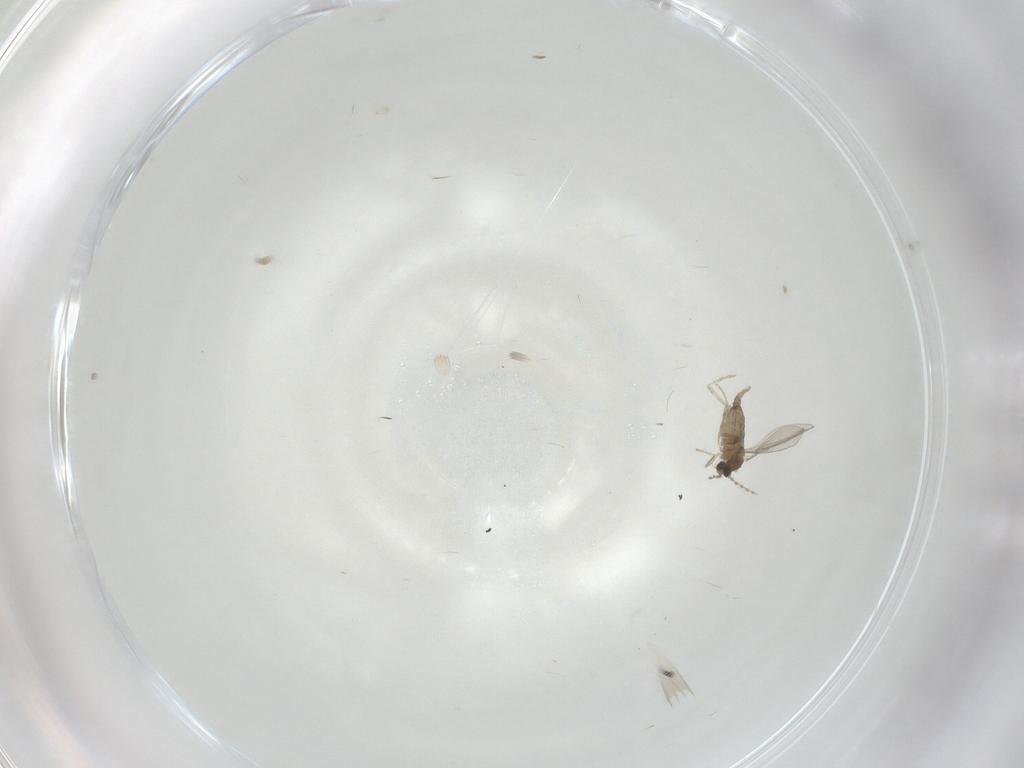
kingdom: Animalia
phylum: Arthropoda
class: Insecta
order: Diptera
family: Cecidomyiidae
